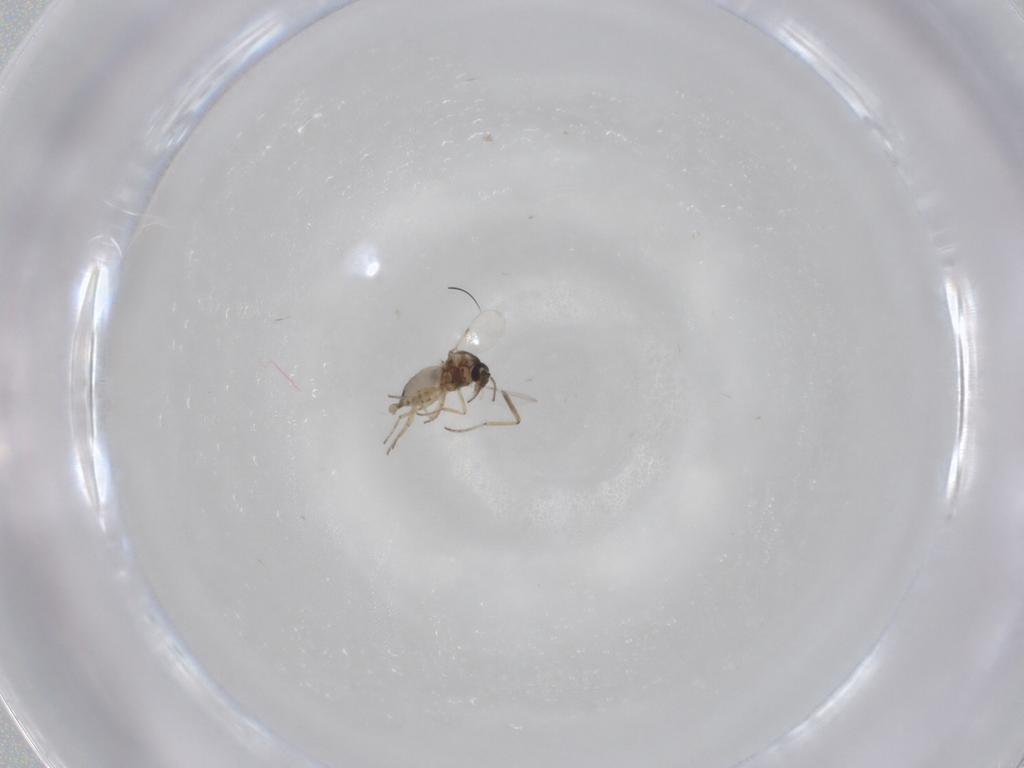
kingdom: Animalia
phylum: Arthropoda
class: Insecta
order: Diptera
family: Ceratopogonidae
